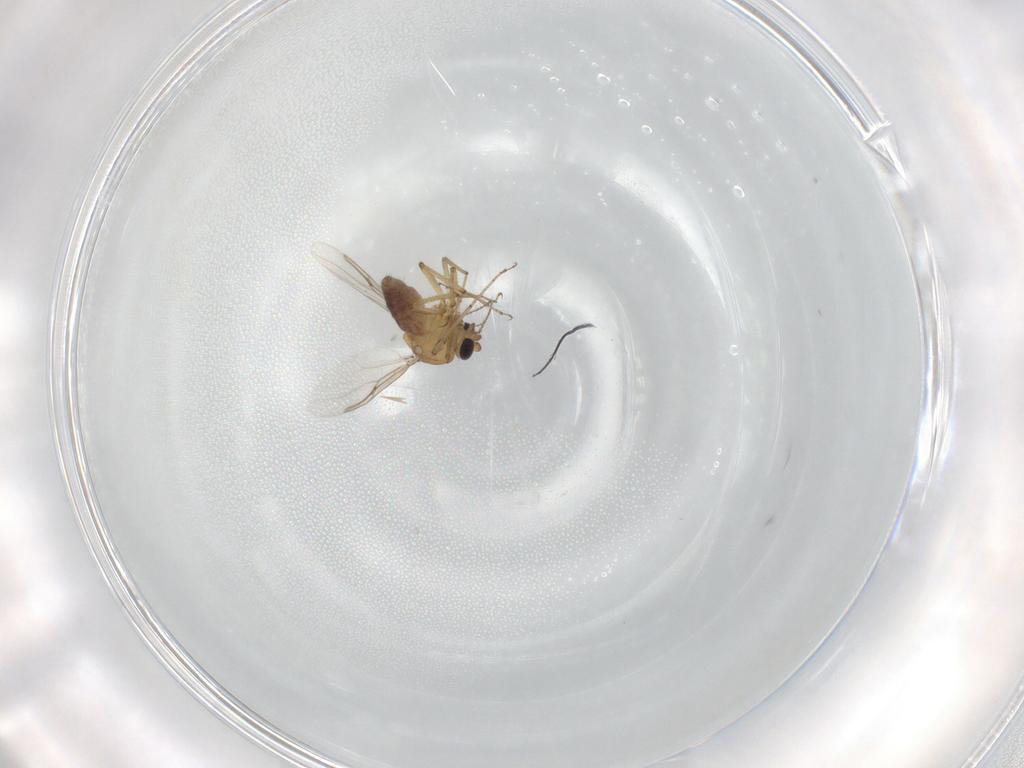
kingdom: Animalia
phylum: Arthropoda
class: Insecta
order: Diptera
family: Ceratopogonidae
